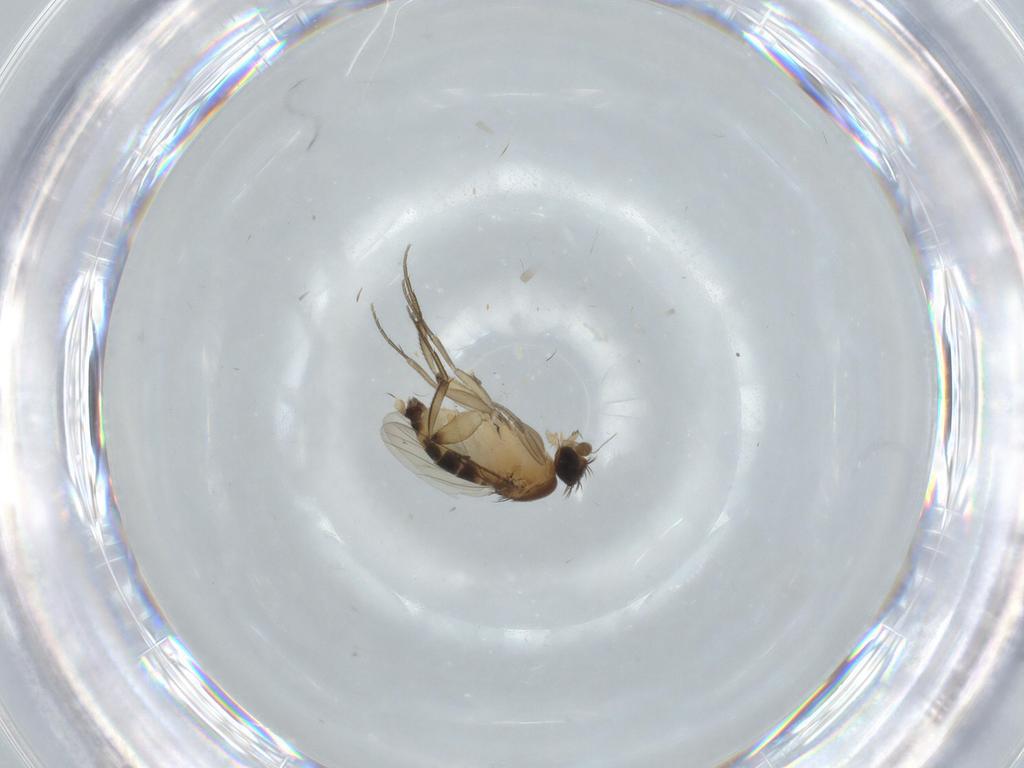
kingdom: Animalia
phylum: Arthropoda
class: Insecta
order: Diptera
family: Phoridae
